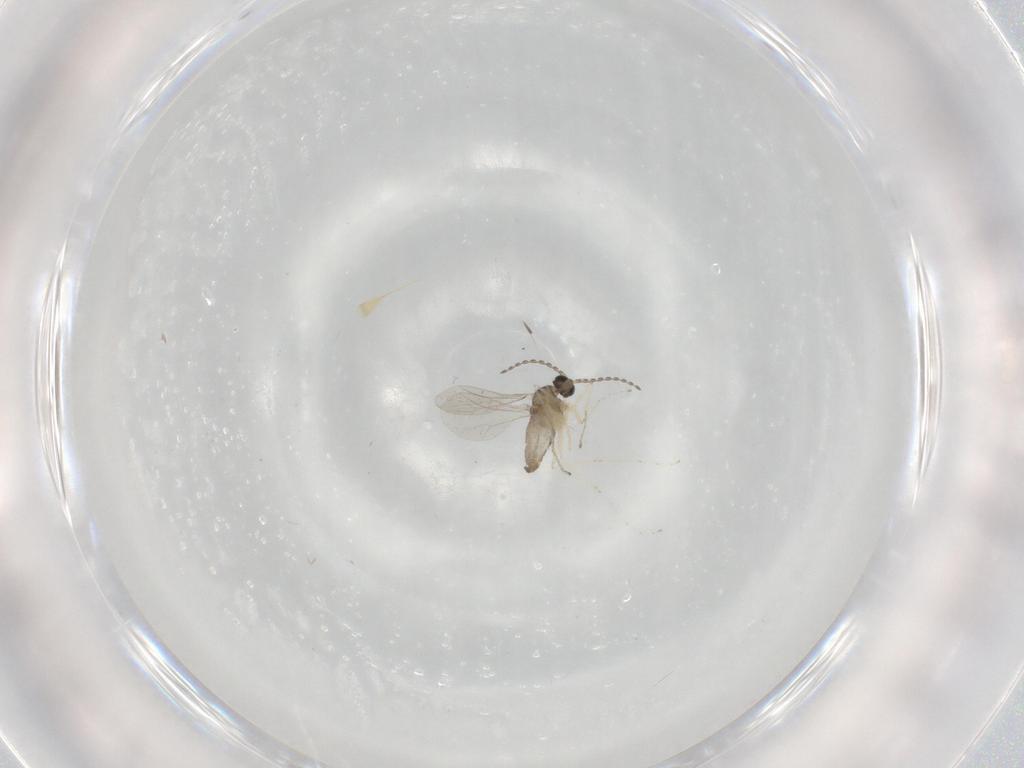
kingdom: Animalia
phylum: Arthropoda
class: Insecta
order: Diptera
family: Cecidomyiidae
